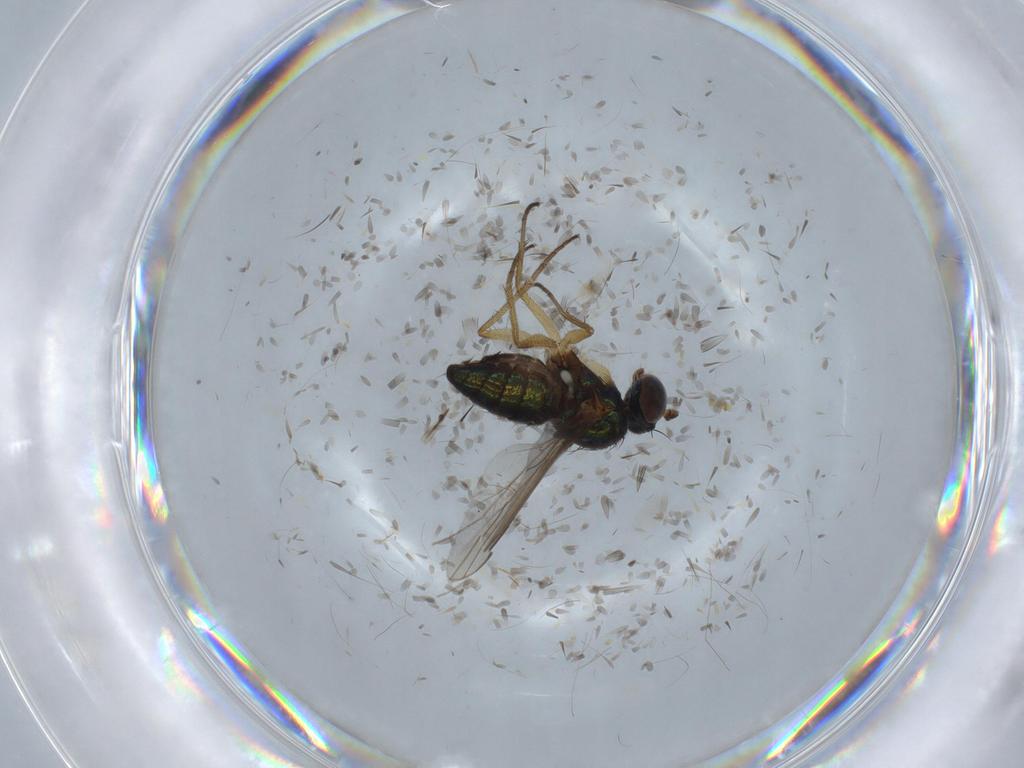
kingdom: Animalia
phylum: Arthropoda
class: Insecta
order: Diptera
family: Chironomidae
